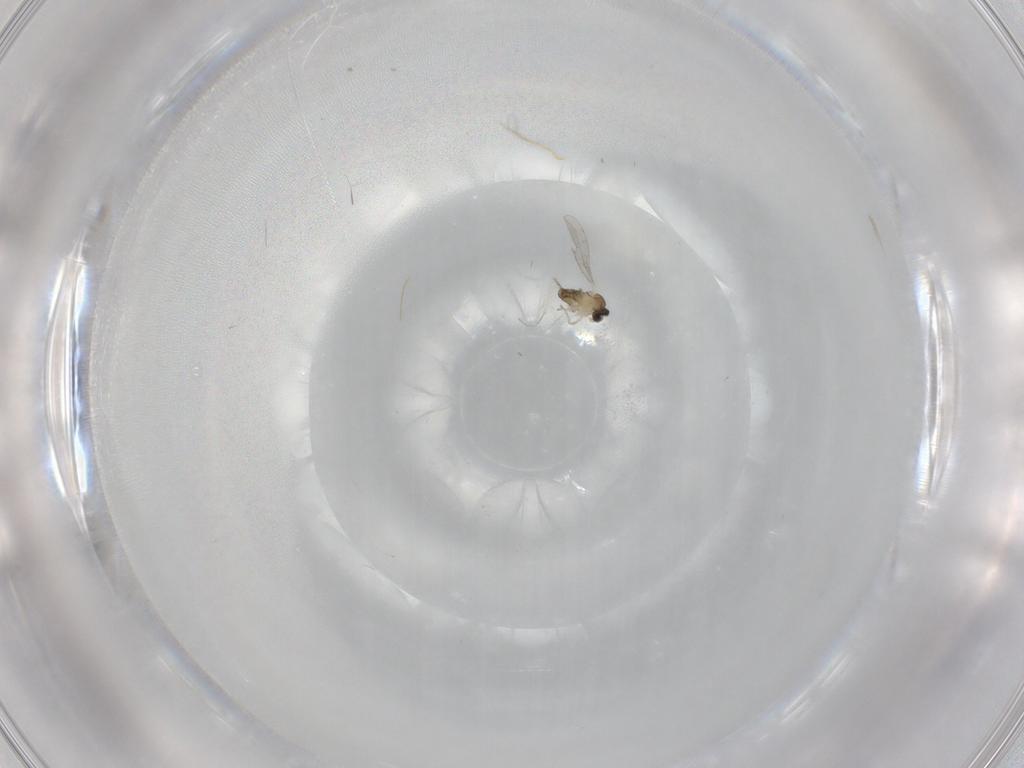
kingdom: Animalia
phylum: Arthropoda
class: Insecta
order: Diptera
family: Cecidomyiidae
